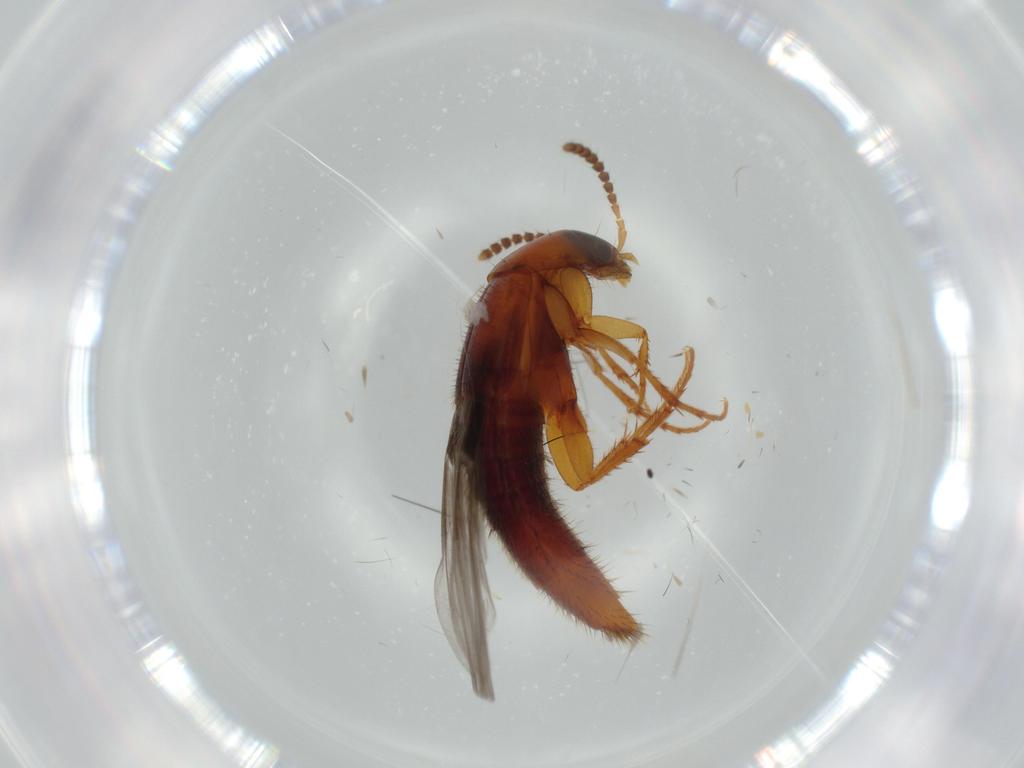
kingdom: Animalia
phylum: Arthropoda
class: Insecta
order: Coleoptera
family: Staphylinidae
